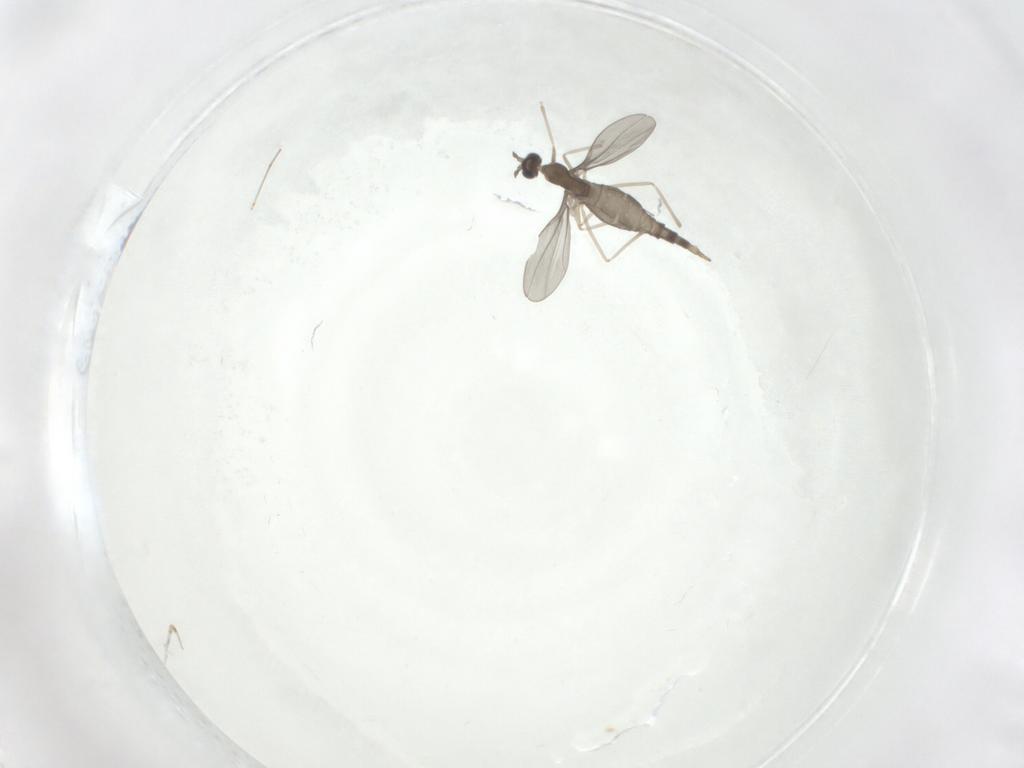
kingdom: Animalia
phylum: Arthropoda
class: Insecta
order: Diptera
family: Cecidomyiidae
